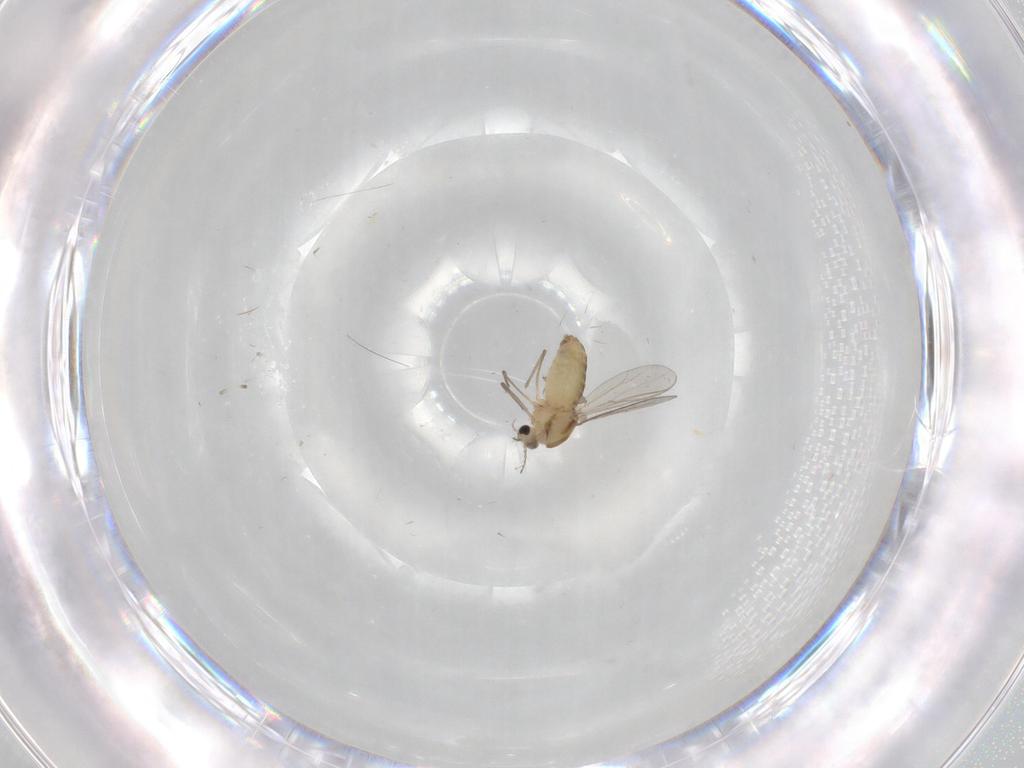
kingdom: Animalia
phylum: Arthropoda
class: Insecta
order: Diptera
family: Chironomidae
